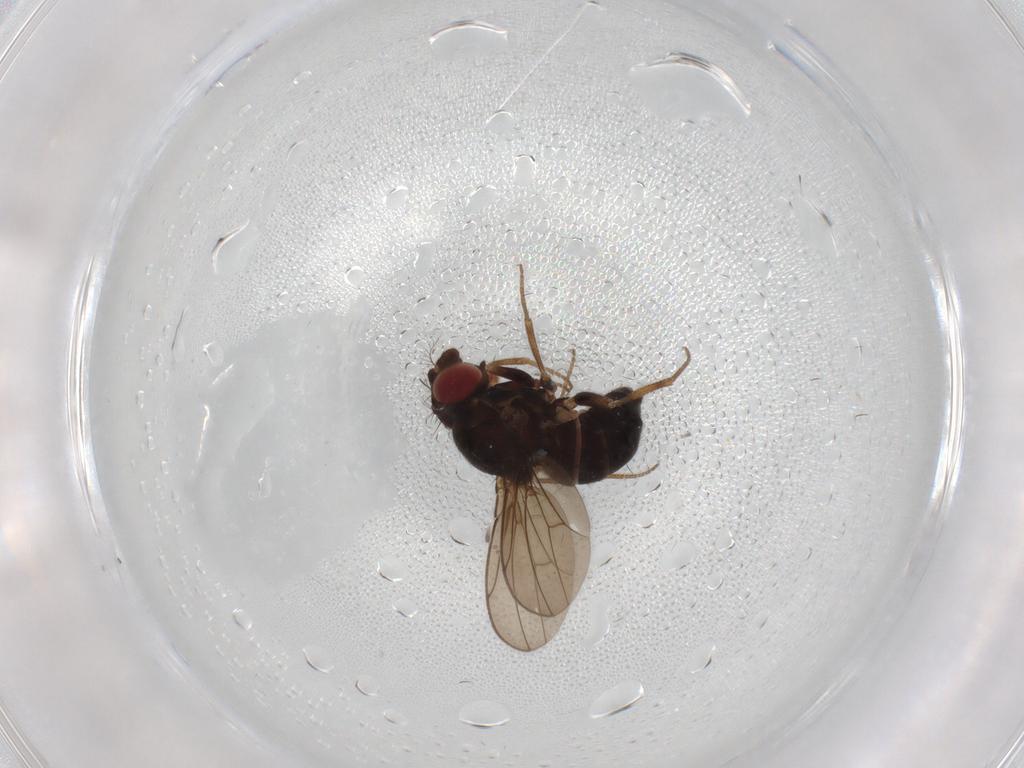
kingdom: Animalia
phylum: Arthropoda
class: Insecta
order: Diptera
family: Drosophilidae
